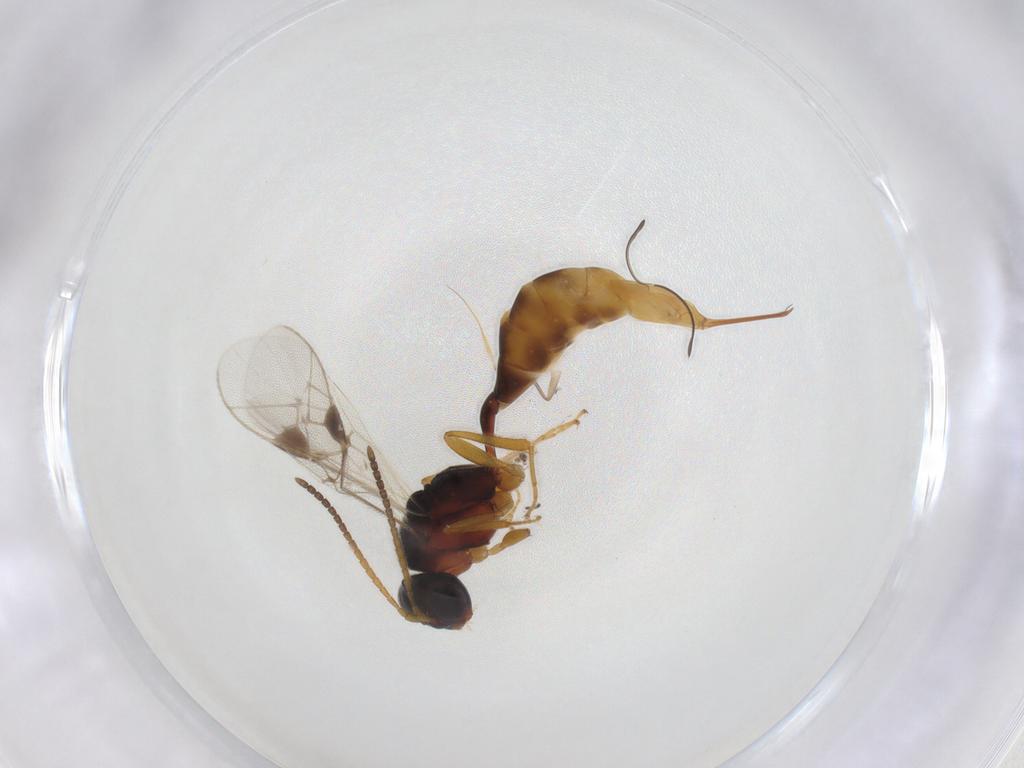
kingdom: Animalia
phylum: Arthropoda
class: Insecta
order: Hymenoptera
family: Ichneumonidae
